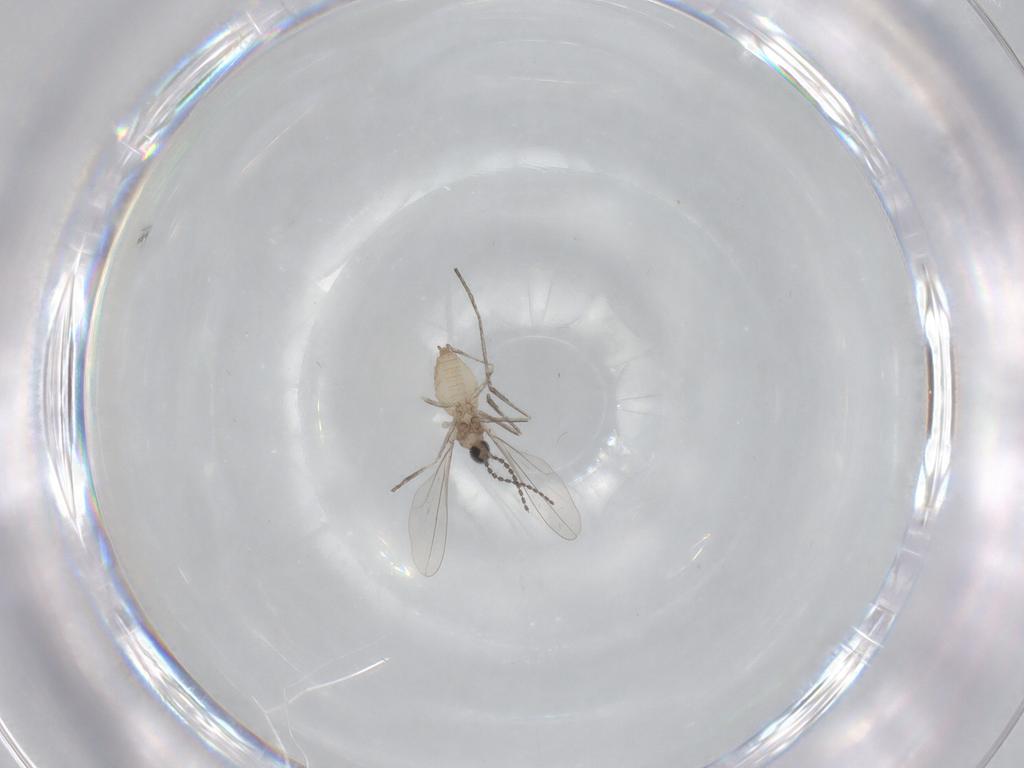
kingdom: Animalia
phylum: Arthropoda
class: Insecta
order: Diptera
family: Cecidomyiidae
